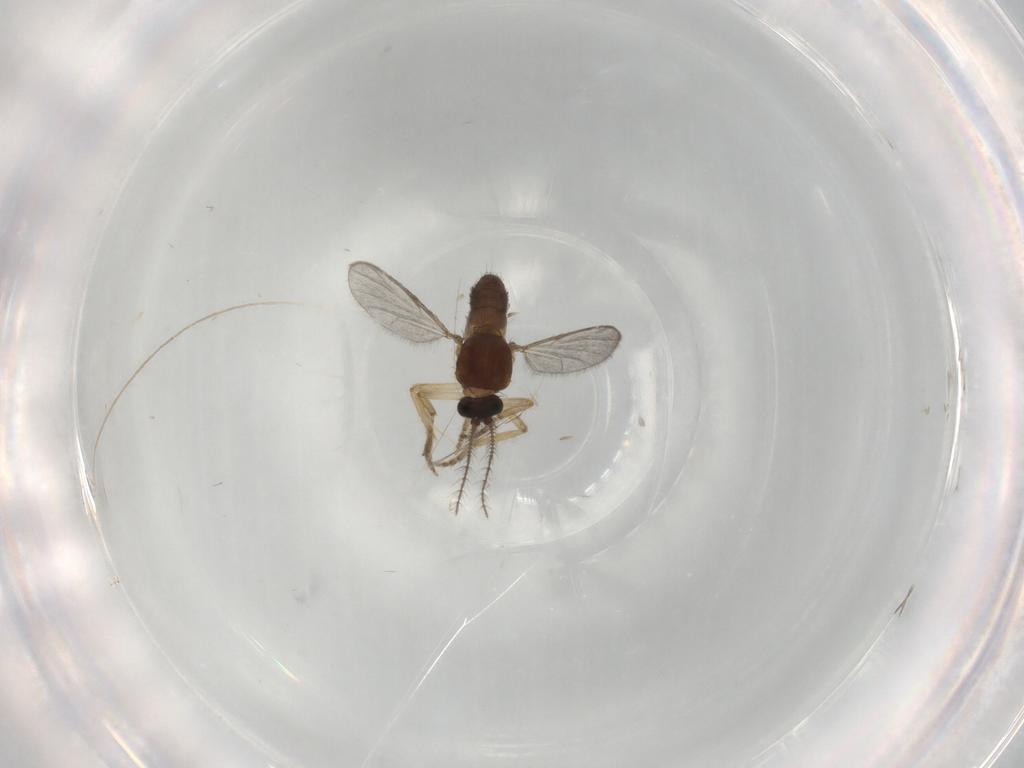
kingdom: Animalia
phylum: Arthropoda
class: Insecta
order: Diptera
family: Ceratopogonidae
